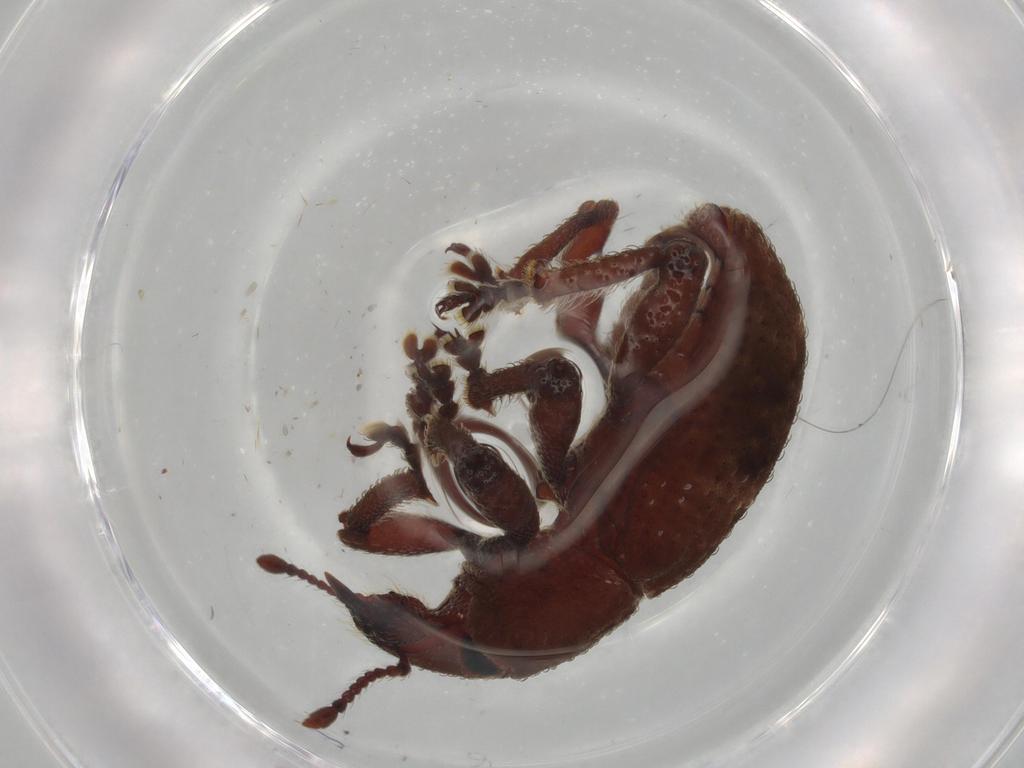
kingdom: Animalia
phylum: Arthropoda
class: Insecta
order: Coleoptera
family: Curculionidae
